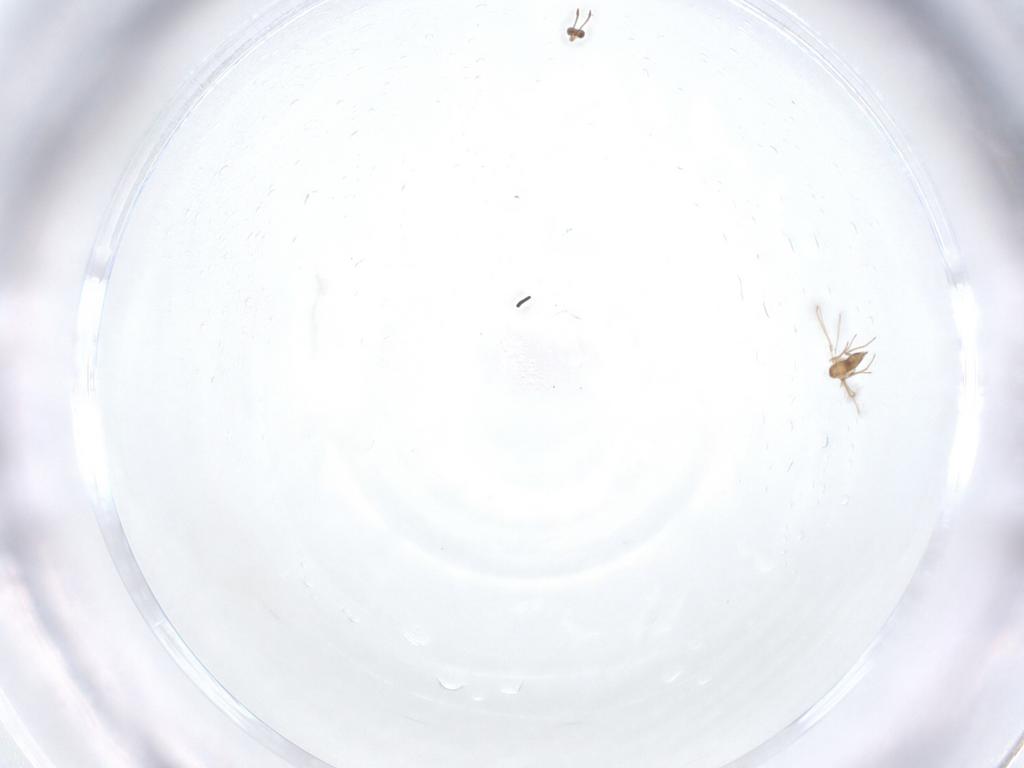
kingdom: Animalia
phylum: Arthropoda
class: Insecta
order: Hymenoptera
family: Mymaridae
